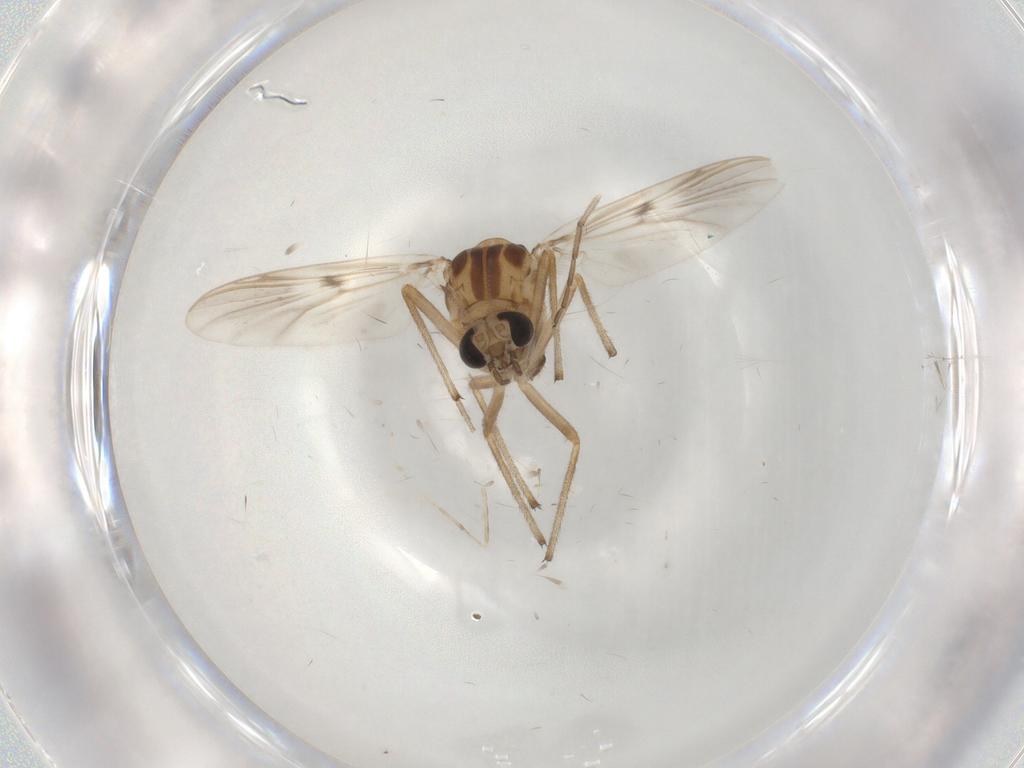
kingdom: Animalia
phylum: Arthropoda
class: Insecta
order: Diptera
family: Chironomidae
